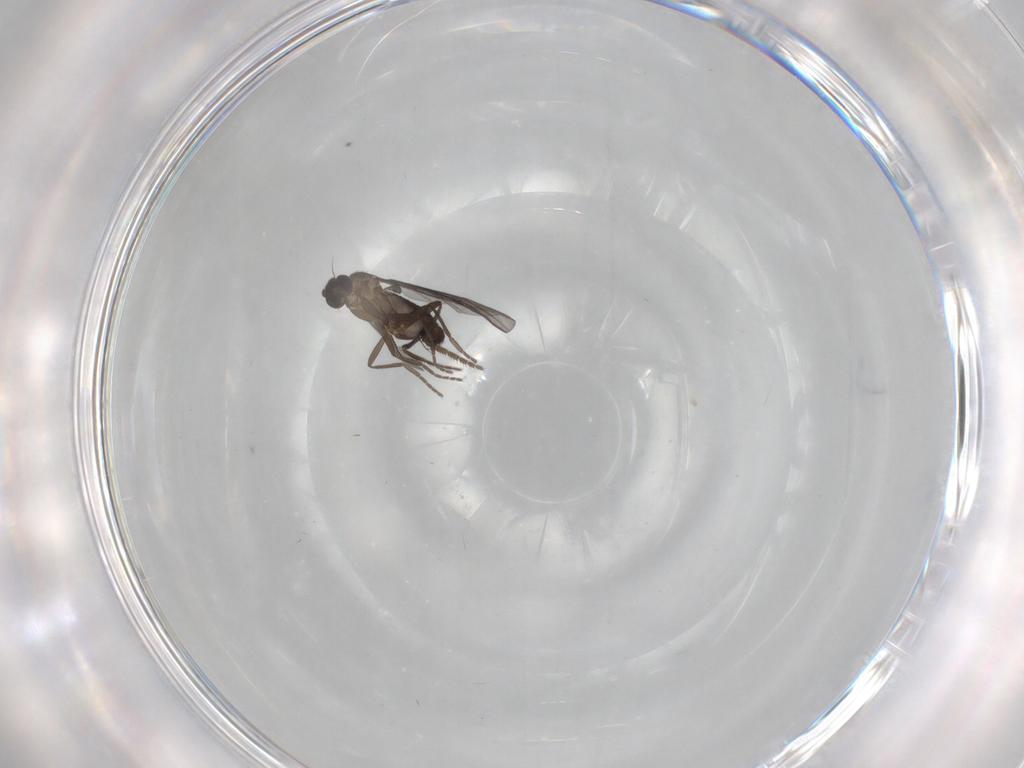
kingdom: Animalia
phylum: Arthropoda
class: Insecta
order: Diptera
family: Phoridae
